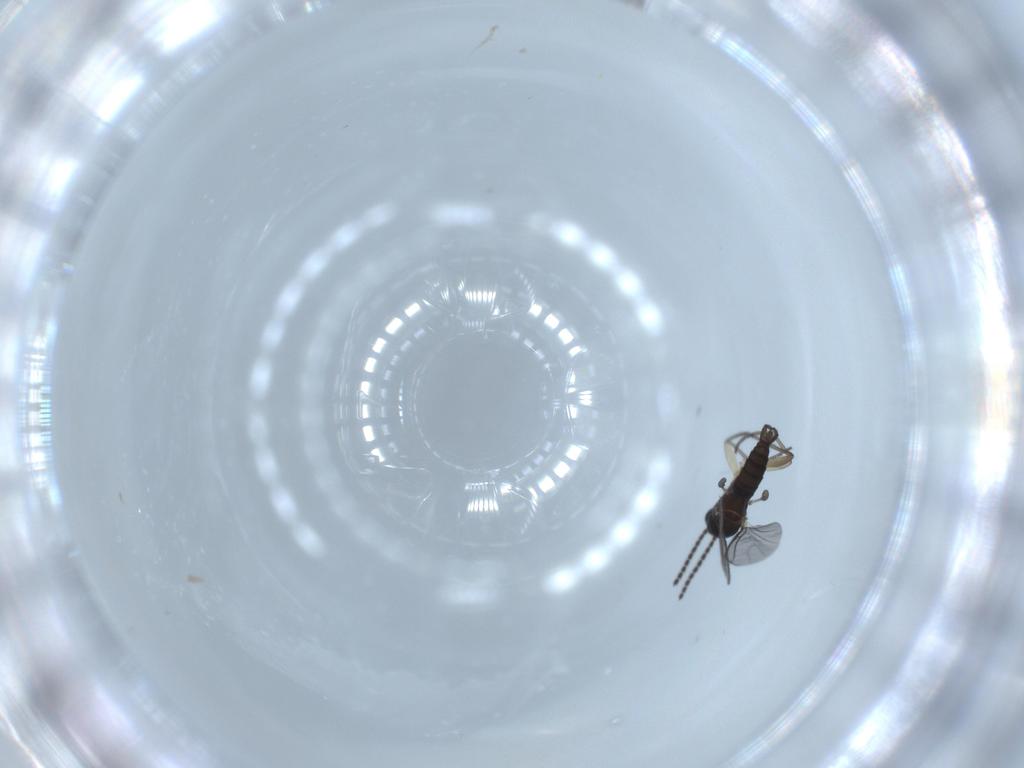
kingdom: Animalia
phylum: Arthropoda
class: Insecta
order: Diptera
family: Sciaridae
